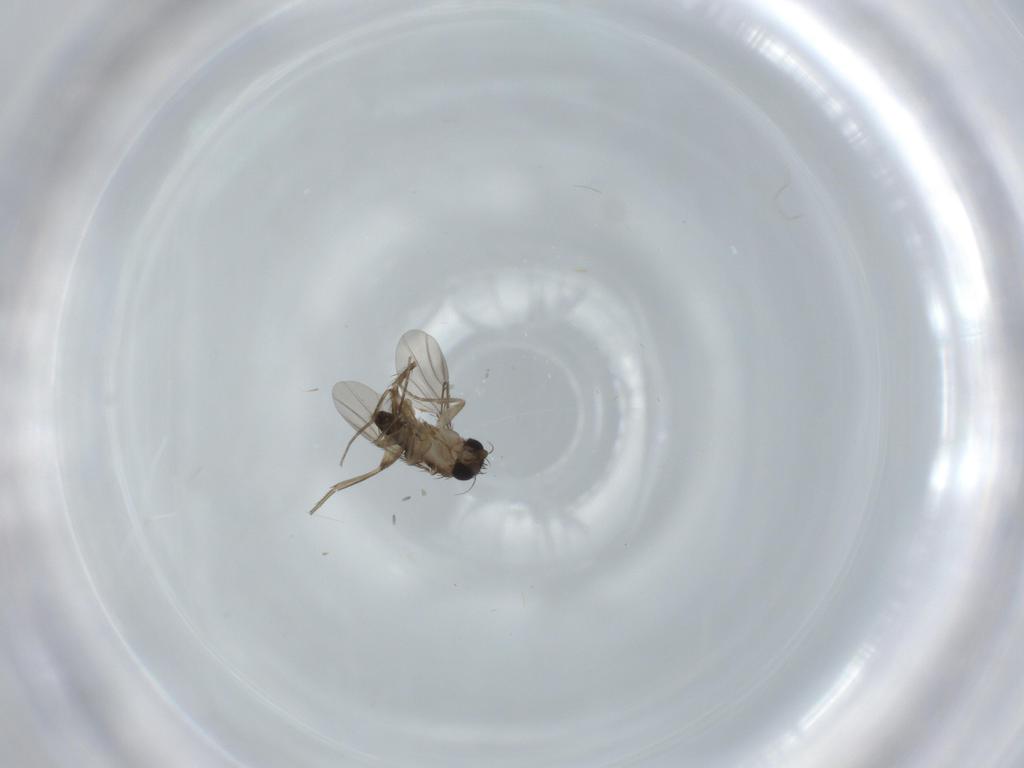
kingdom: Animalia
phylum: Arthropoda
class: Insecta
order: Diptera
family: Phoridae
